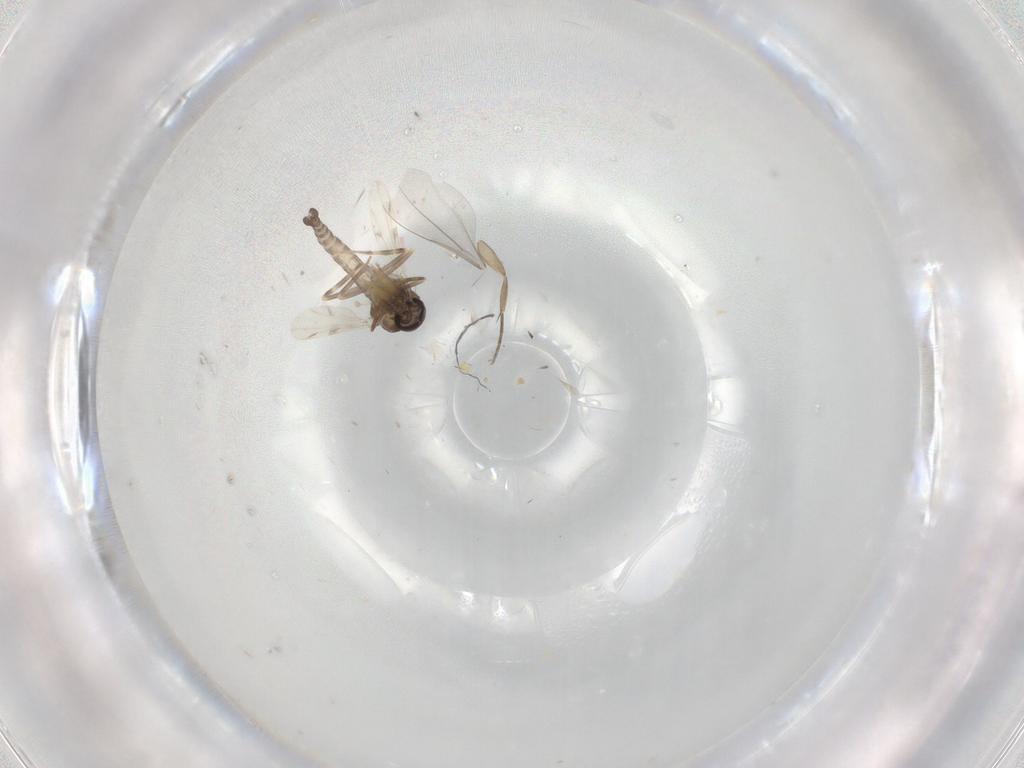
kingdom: Animalia
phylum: Arthropoda
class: Insecta
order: Diptera
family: Ceratopogonidae
